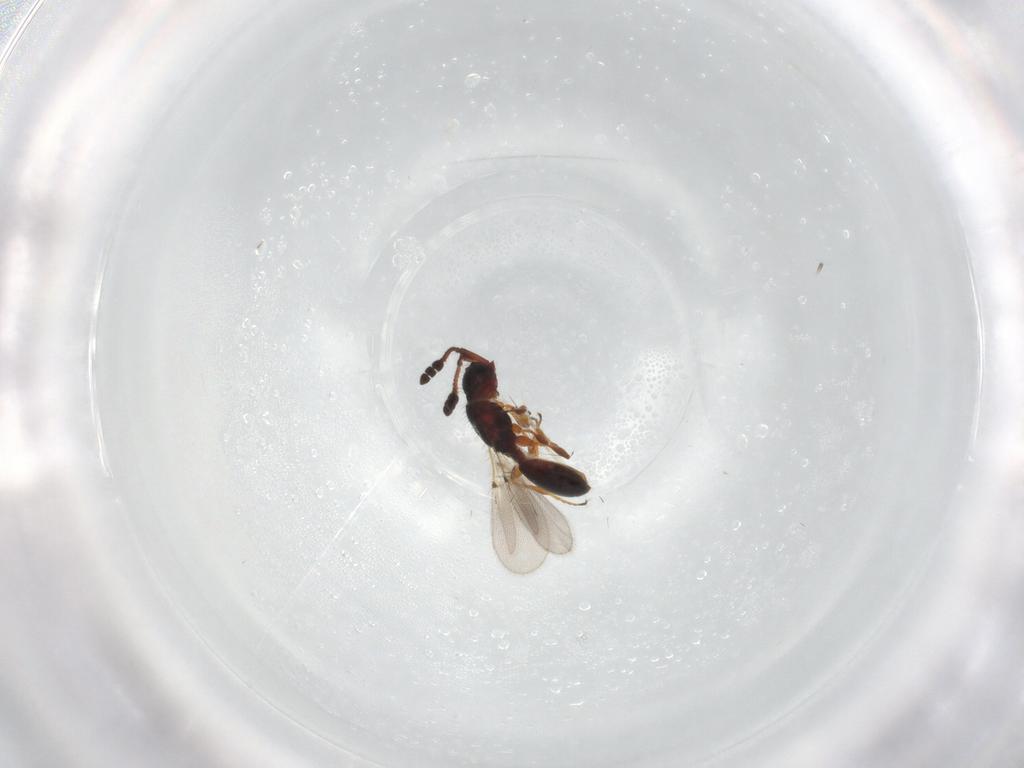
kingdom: Animalia
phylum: Arthropoda
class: Insecta
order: Hymenoptera
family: Diapriidae
